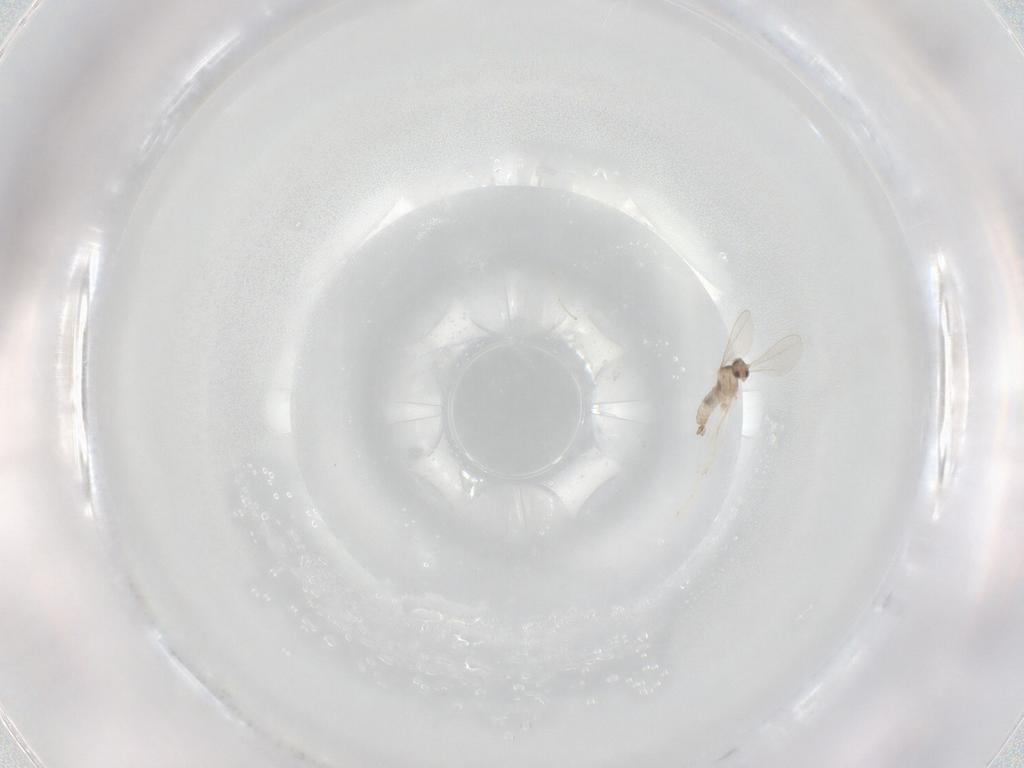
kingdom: Animalia
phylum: Arthropoda
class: Insecta
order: Diptera
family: Cecidomyiidae
